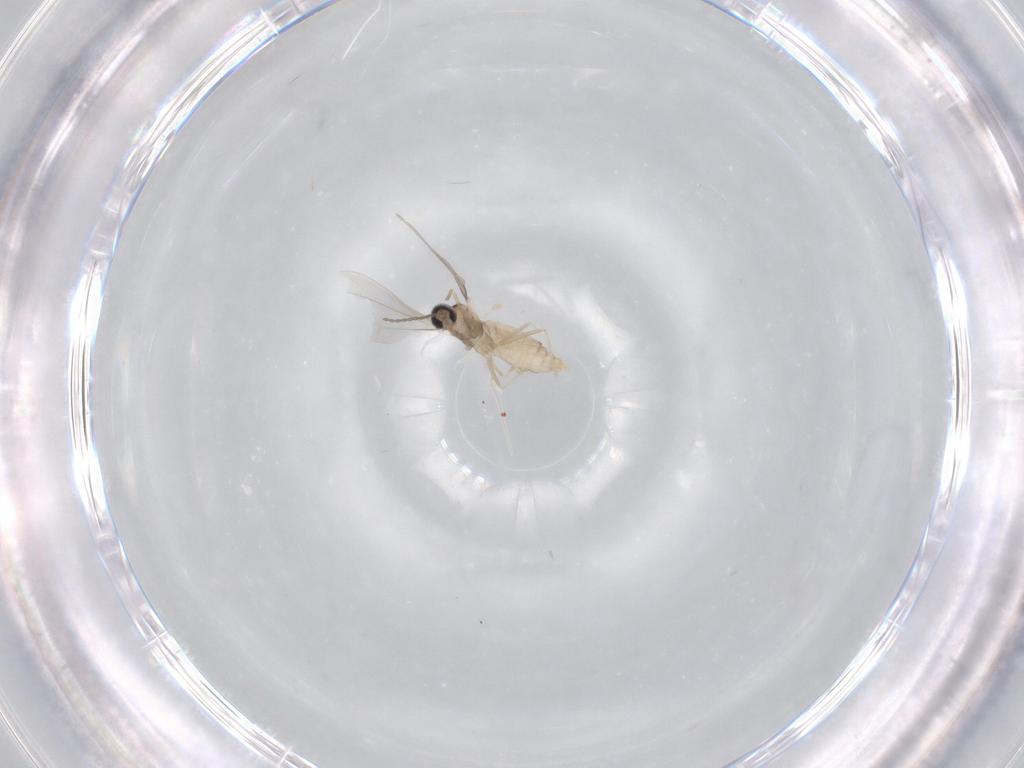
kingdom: Animalia
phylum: Arthropoda
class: Insecta
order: Diptera
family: Cecidomyiidae
